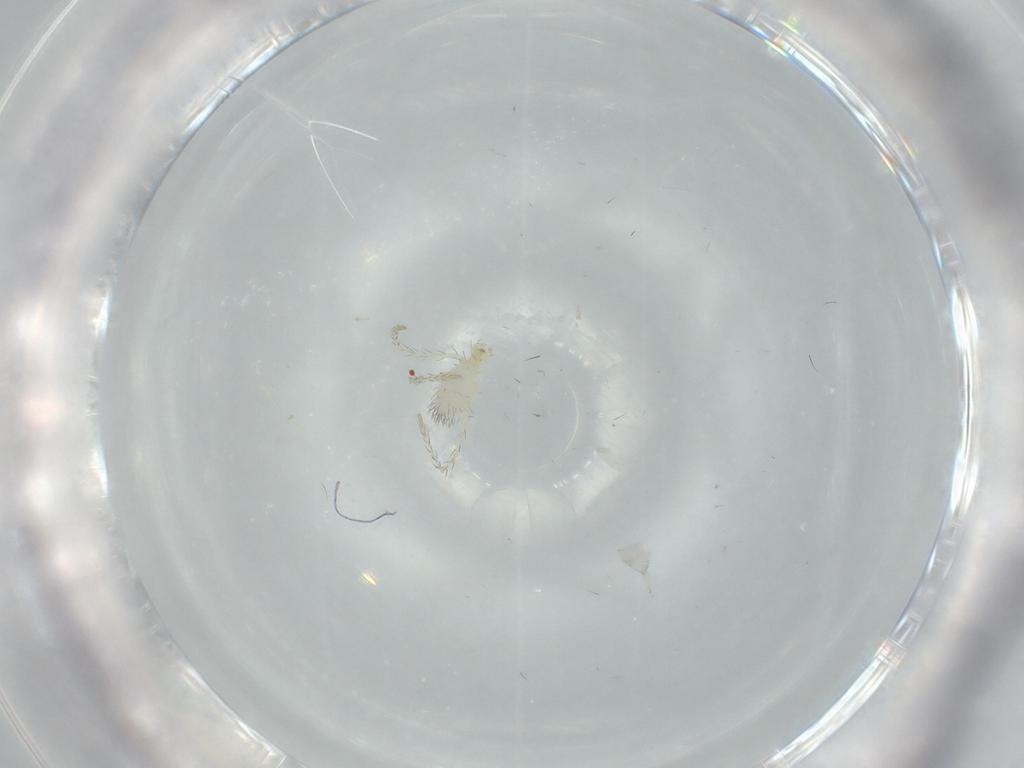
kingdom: Animalia
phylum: Arthropoda
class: Arachnida
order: Trombidiformes
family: Erythraeidae
